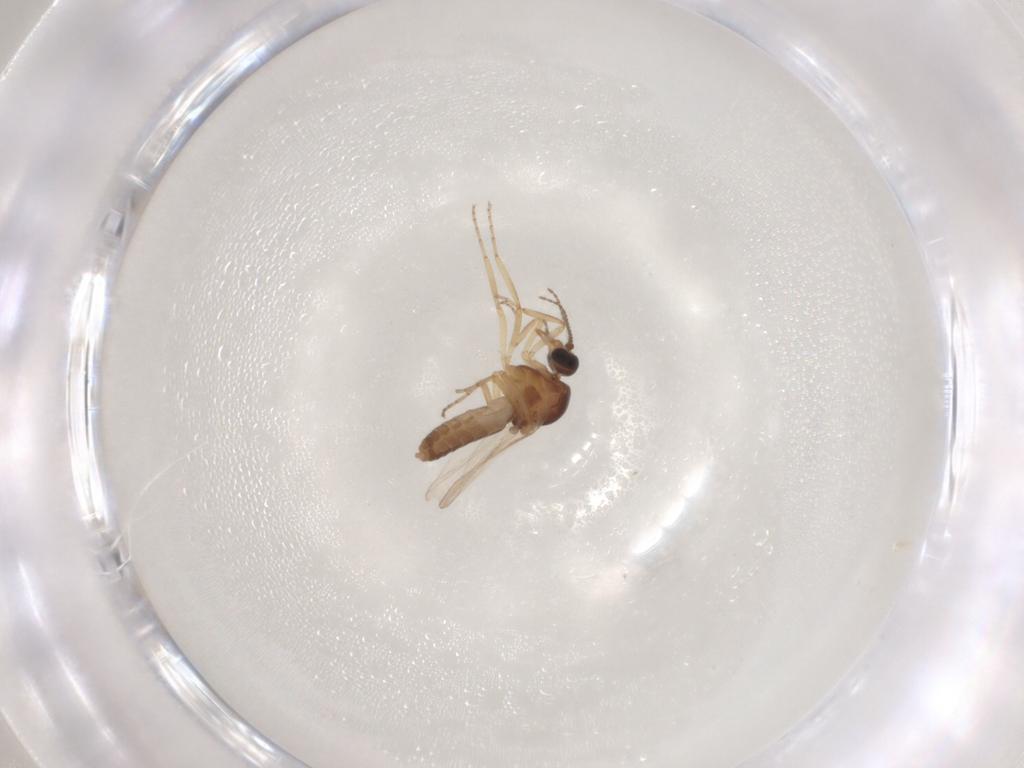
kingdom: Animalia
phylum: Arthropoda
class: Insecta
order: Diptera
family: Ceratopogonidae
